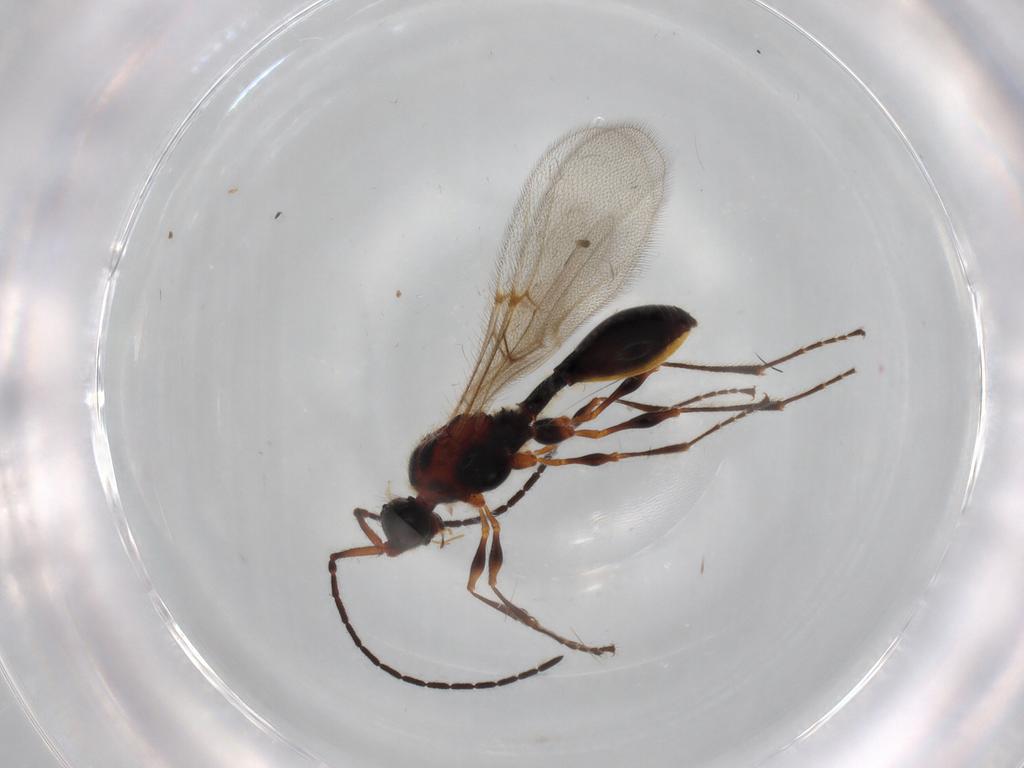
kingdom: Animalia
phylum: Arthropoda
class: Insecta
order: Hymenoptera
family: Diapriidae
